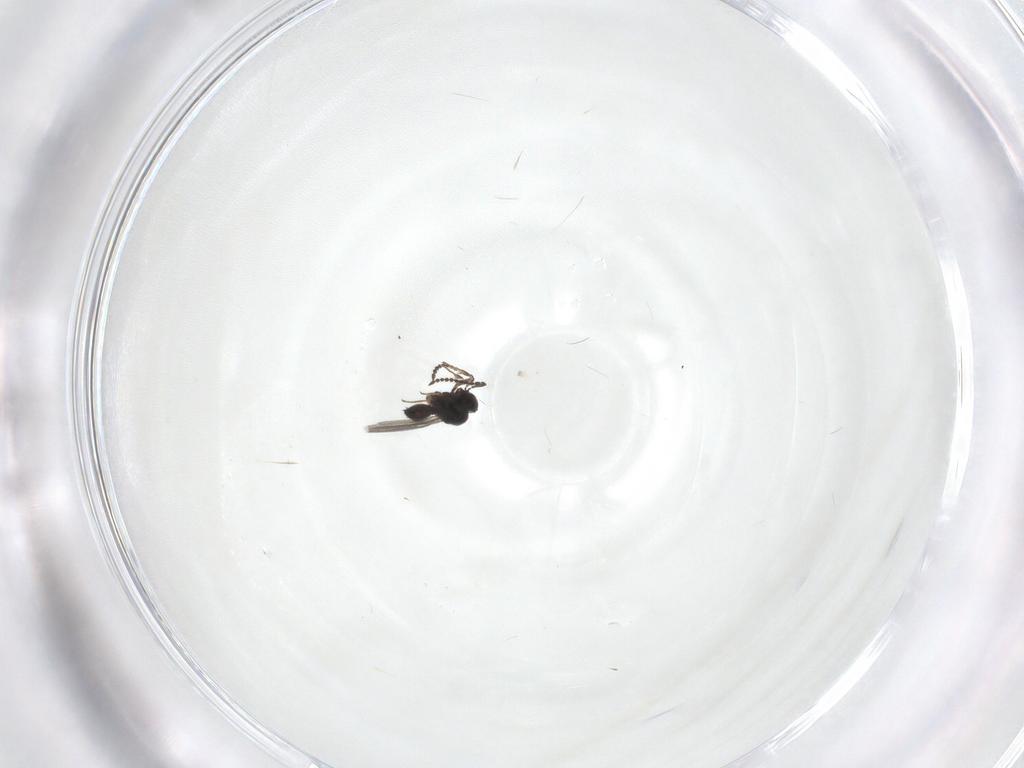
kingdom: Animalia
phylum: Arthropoda
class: Insecta
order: Hymenoptera
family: Scelionidae
